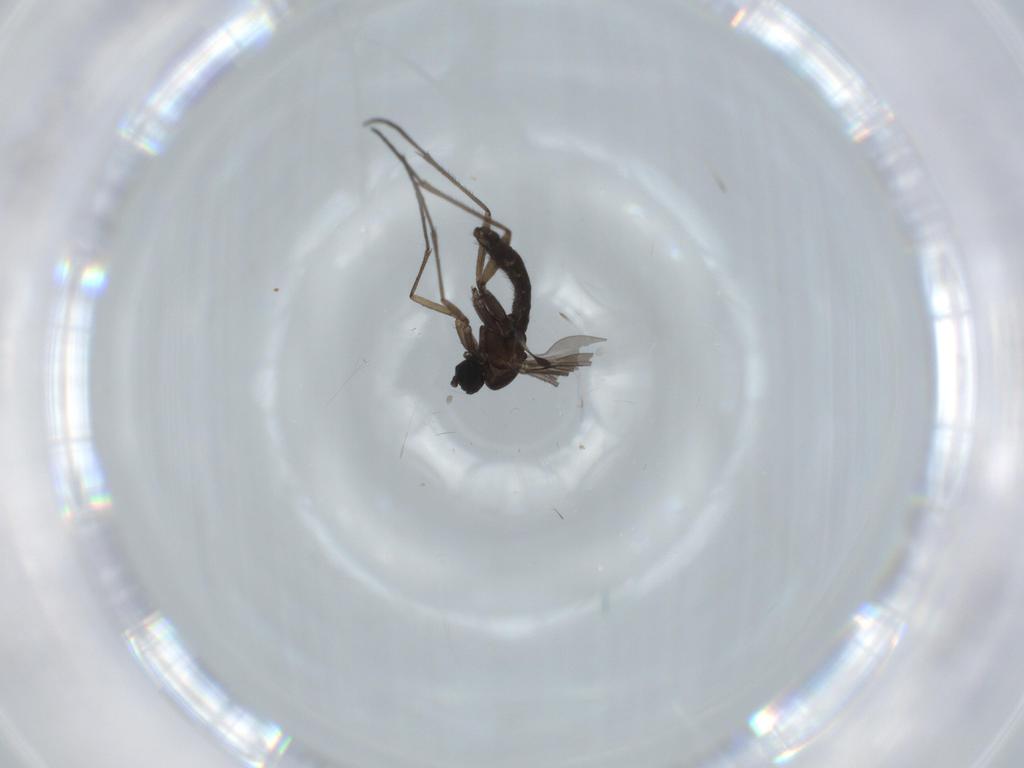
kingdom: Animalia
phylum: Arthropoda
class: Insecta
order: Diptera
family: Sciaridae
